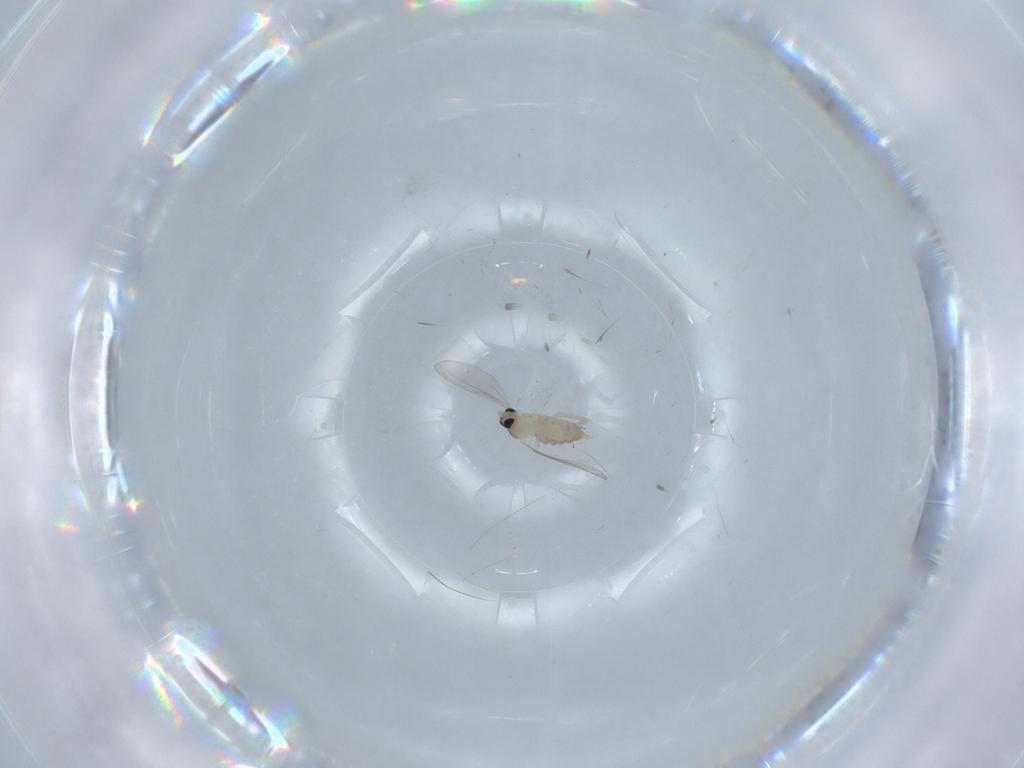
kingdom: Animalia
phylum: Arthropoda
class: Insecta
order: Diptera
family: Cecidomyiidae
